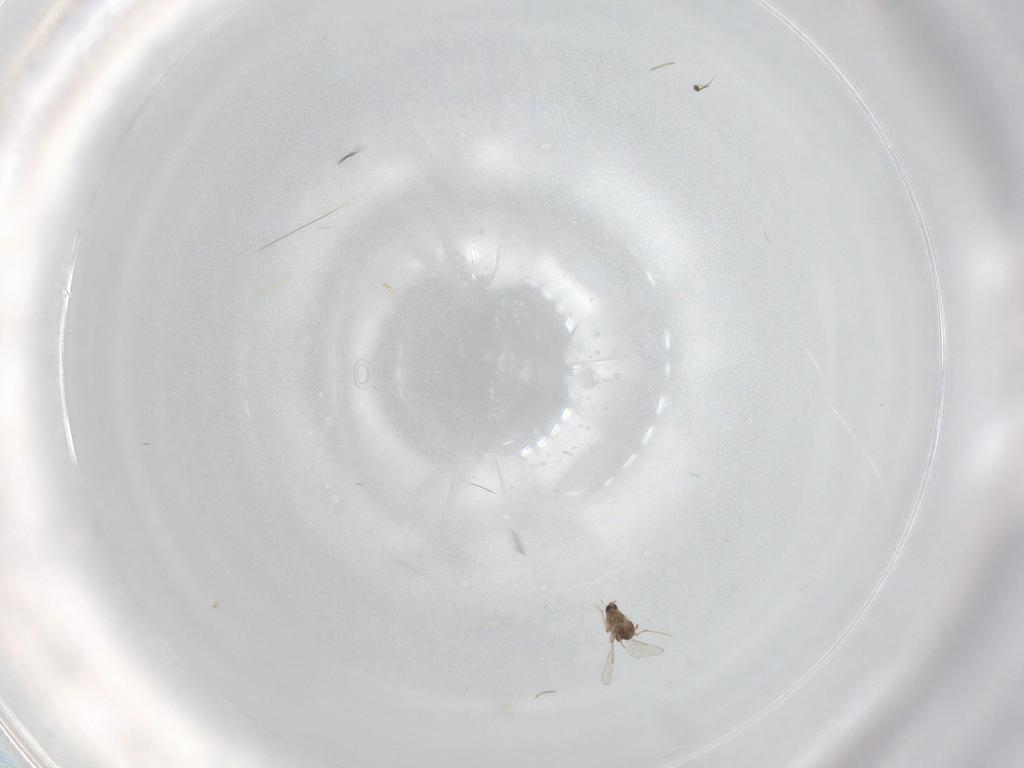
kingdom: Animalia
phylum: Arthropoda
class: Insecta
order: Diptera
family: Chironomidae
